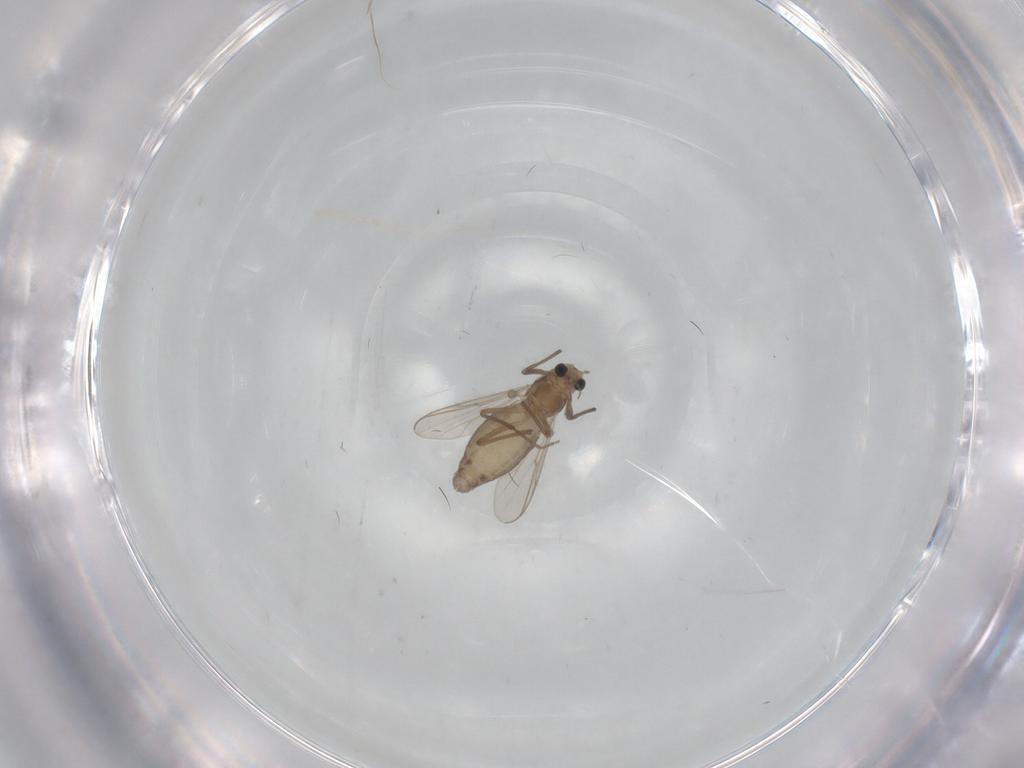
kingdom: Animalia
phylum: Arthropoda
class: Insecta
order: Diptera
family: Chironomidae
